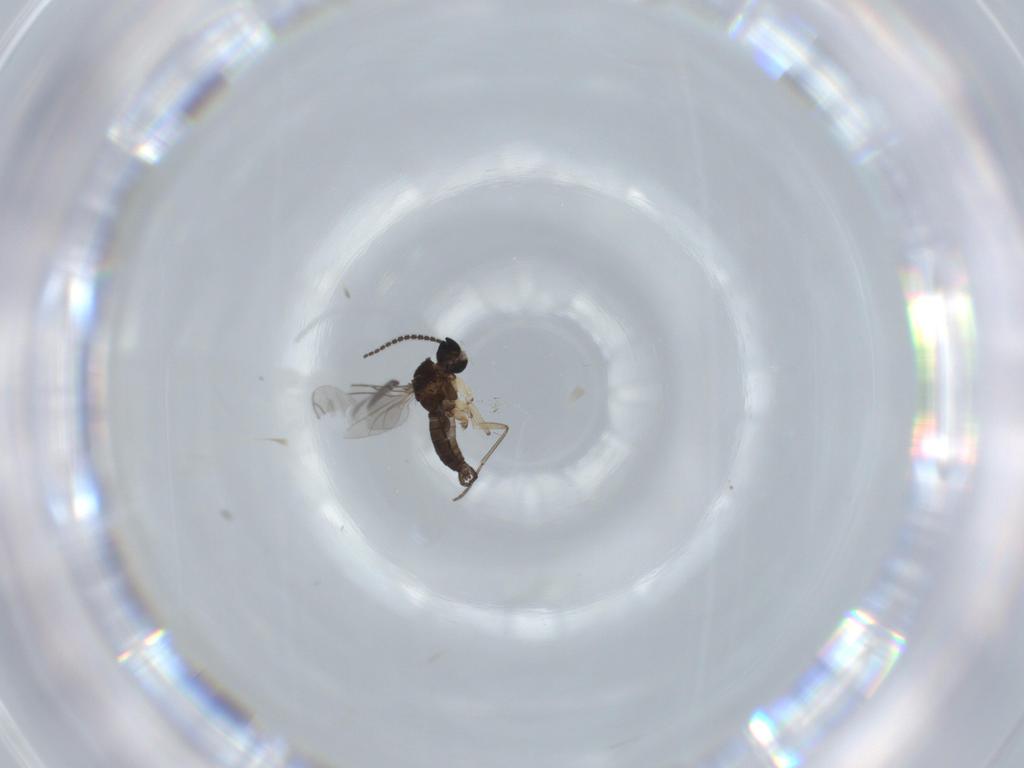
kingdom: Animalia
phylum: Arthropoda
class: Insecta
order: Diptera
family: Sciaridae
